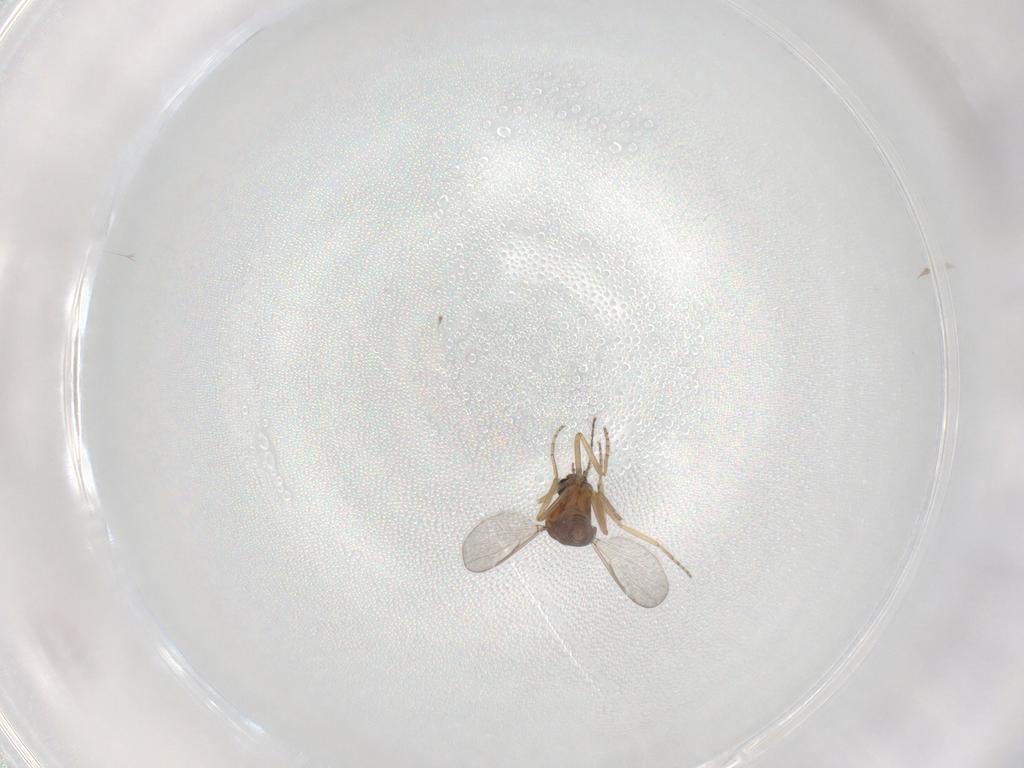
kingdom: Animalia
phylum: Arthropoda
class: Insecta
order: Diptera
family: Ceratopogonidae
